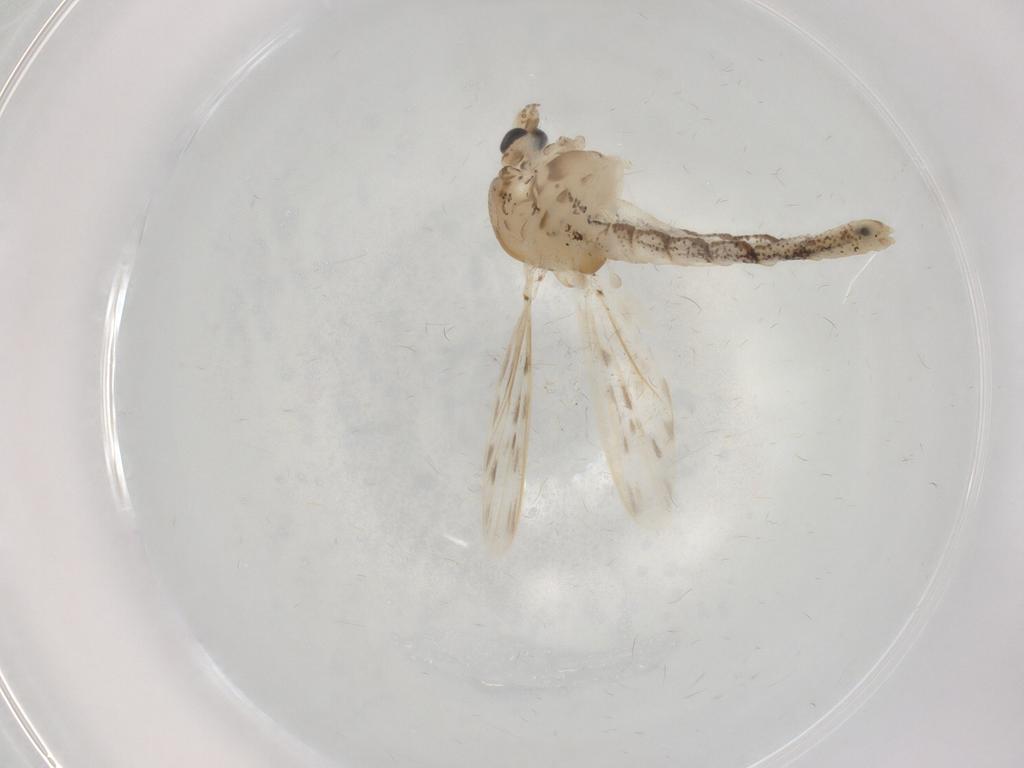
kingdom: Animalia
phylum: Arthropoda
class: Insecta
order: Diptera
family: Chaoboridae
